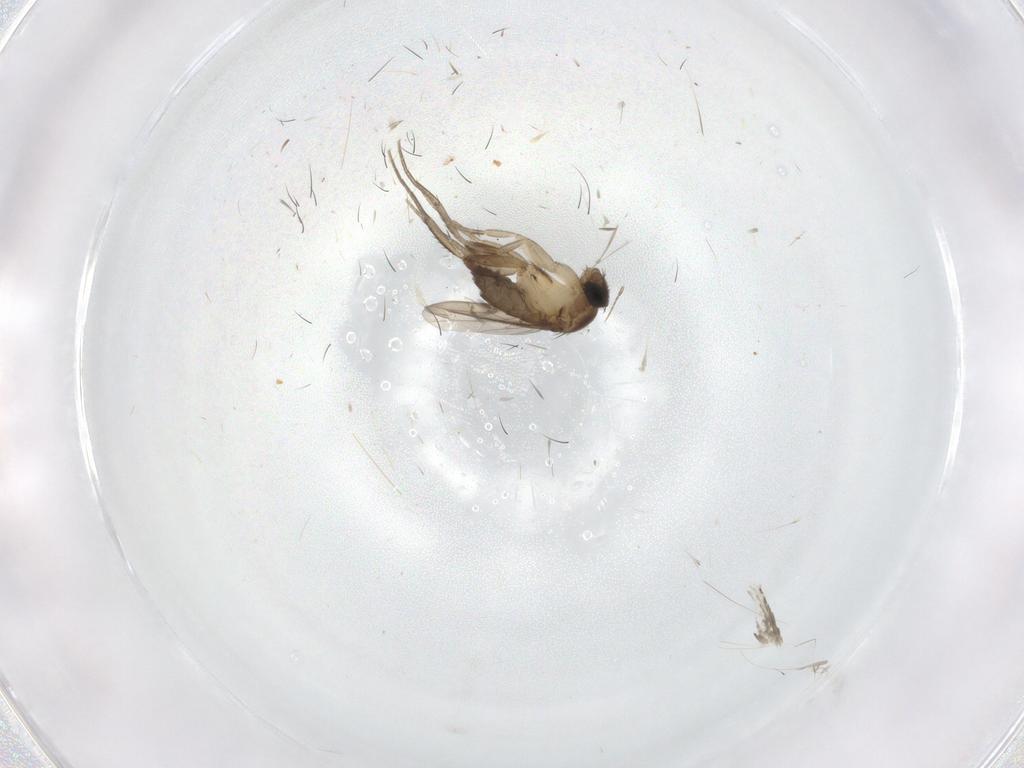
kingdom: Animalia
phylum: Arthropoda
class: Insecta
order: Diptera
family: Phoridae
